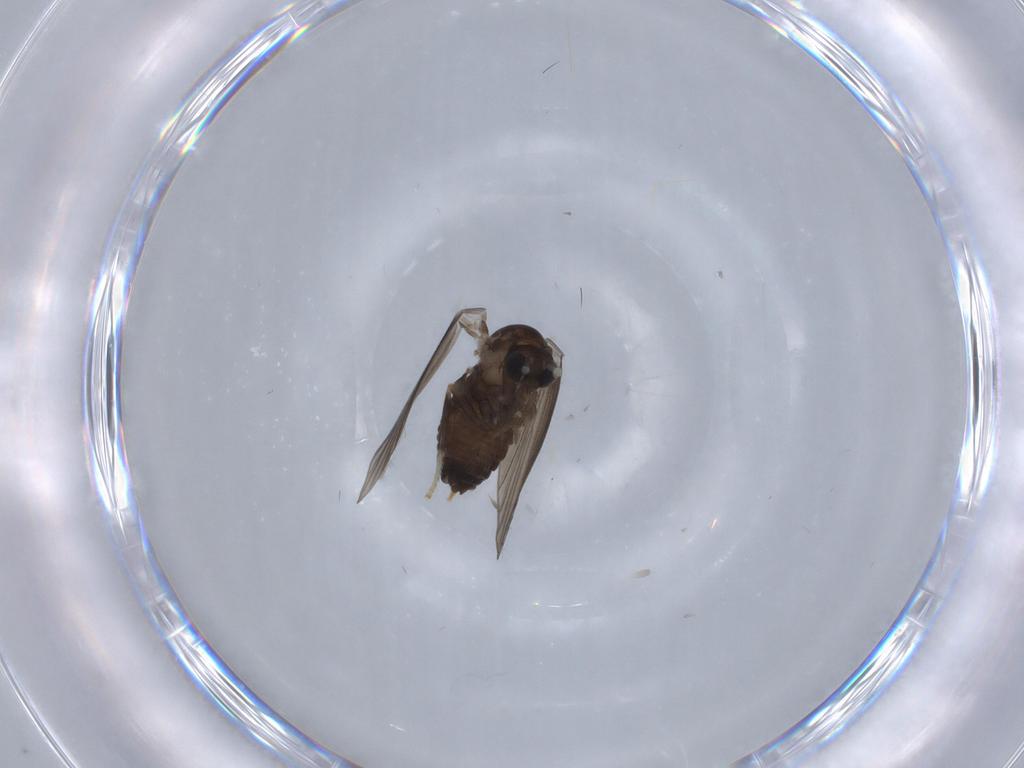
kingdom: Animalia
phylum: Arthropoda
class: Insecta
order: Diptera
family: Psychodidae
